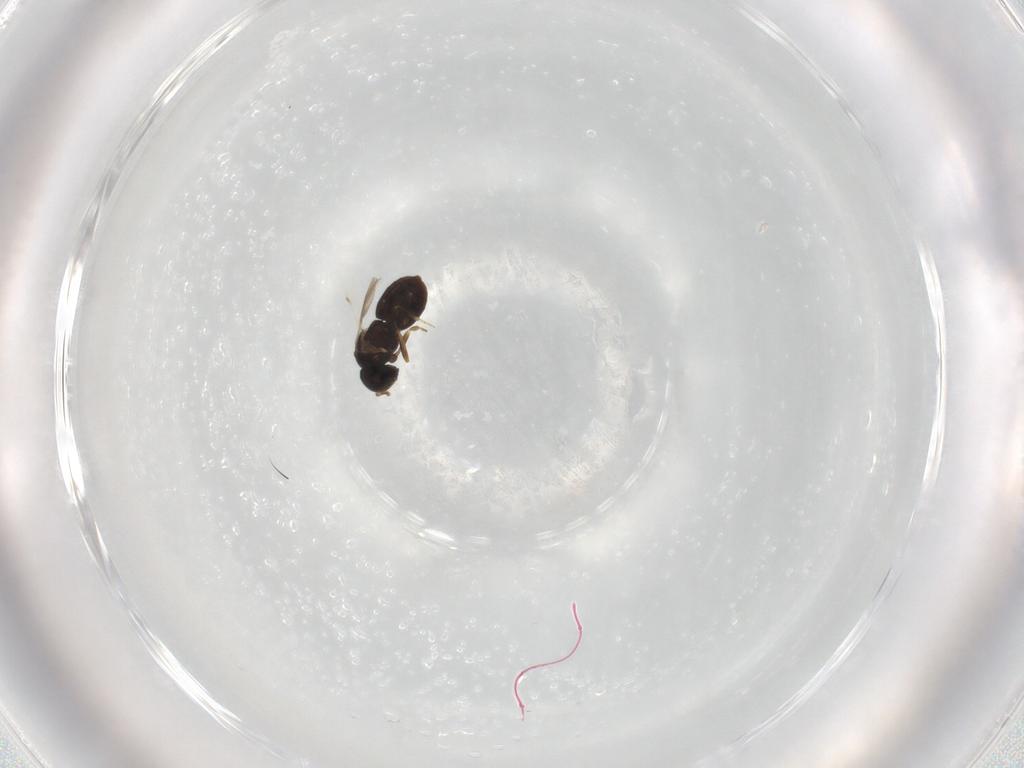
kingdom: Animalia
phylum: Arthropoda
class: Insecta
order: Hymenoptera
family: Scelionidae
